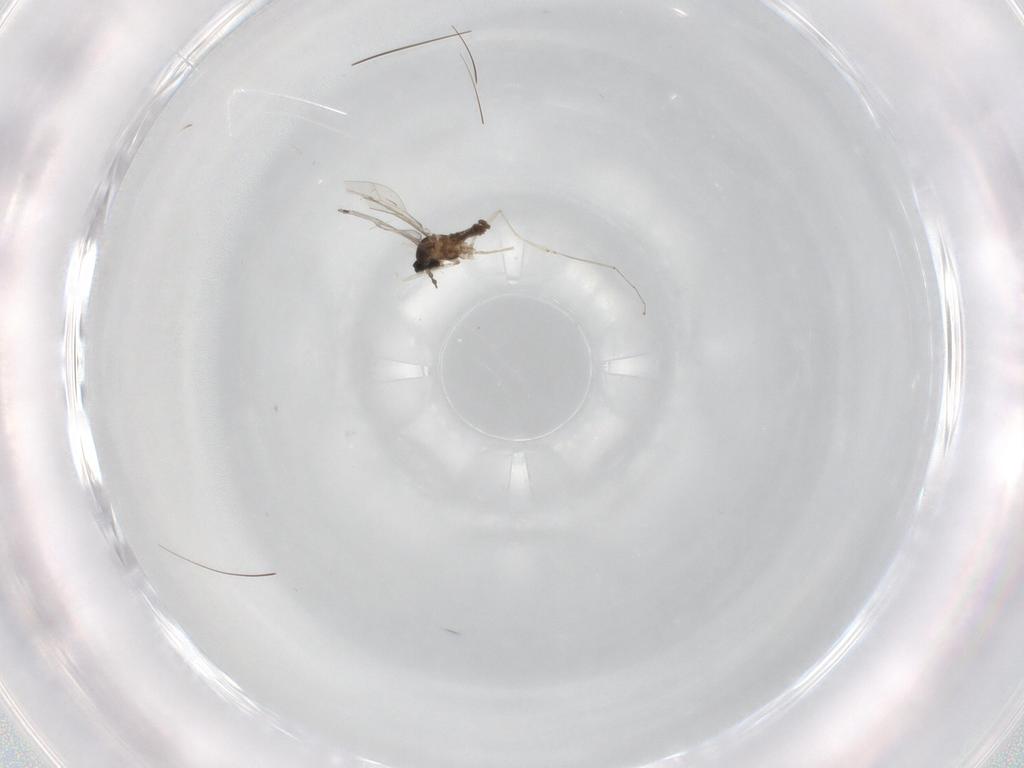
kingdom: Animalia
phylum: Arthropoda
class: Insecta
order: Diptera
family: Cecidomyiidae
